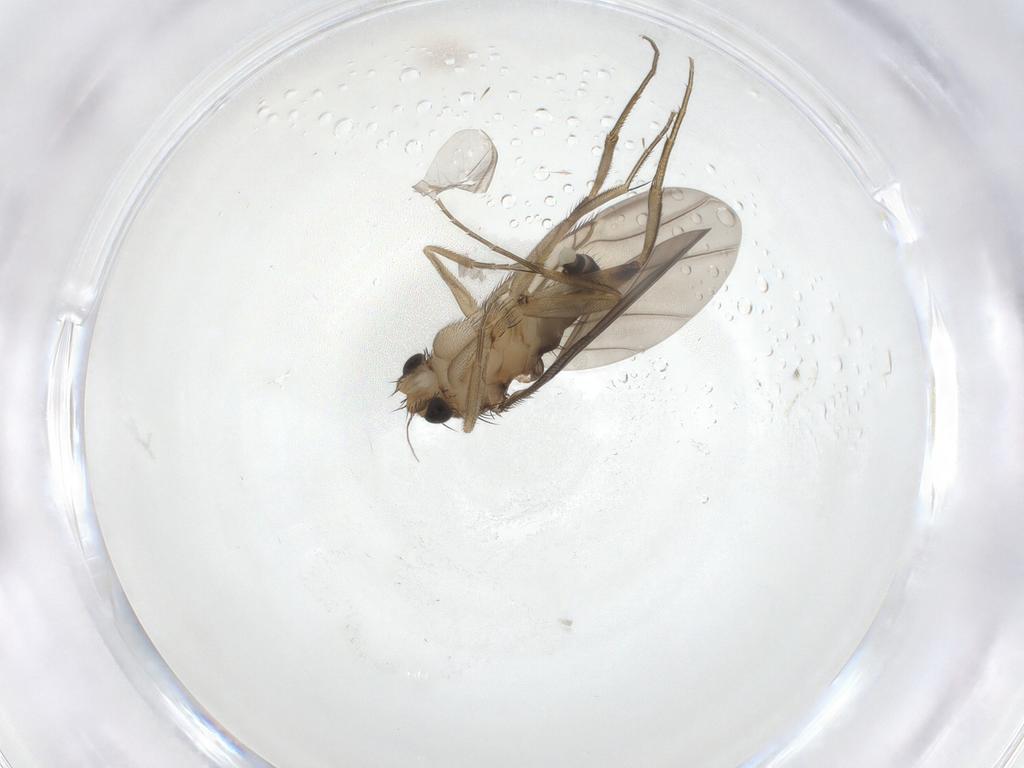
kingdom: Animalia
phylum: Arthropoda
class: Insecta
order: Diptera
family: Phoridae
